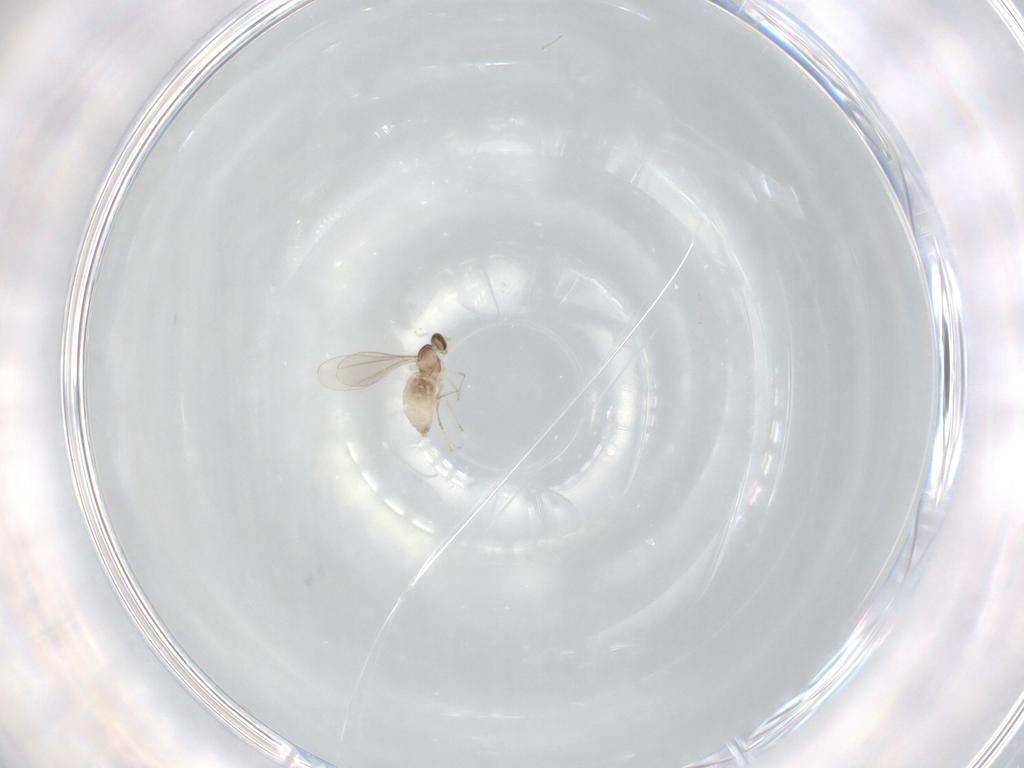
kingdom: Animalia
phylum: Arthropoda
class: Insecta
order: Diptera
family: Cecidomyiidae
